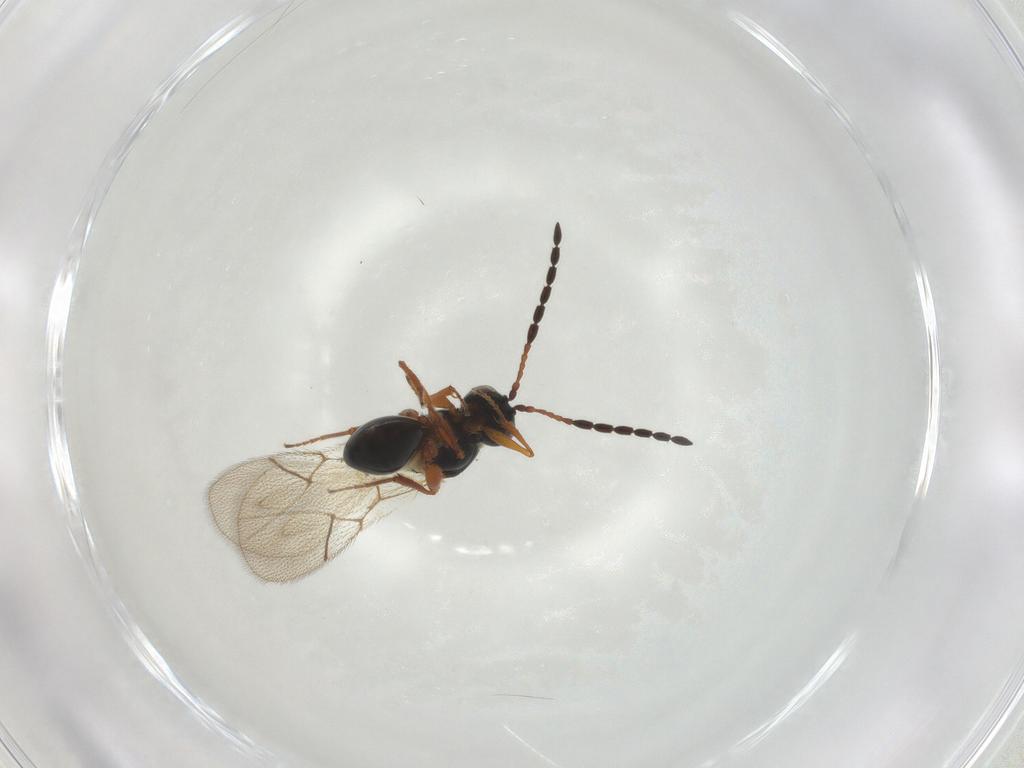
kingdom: Animalia
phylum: Arthropoda
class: Insecta
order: Hymenoptera
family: Figitidae
